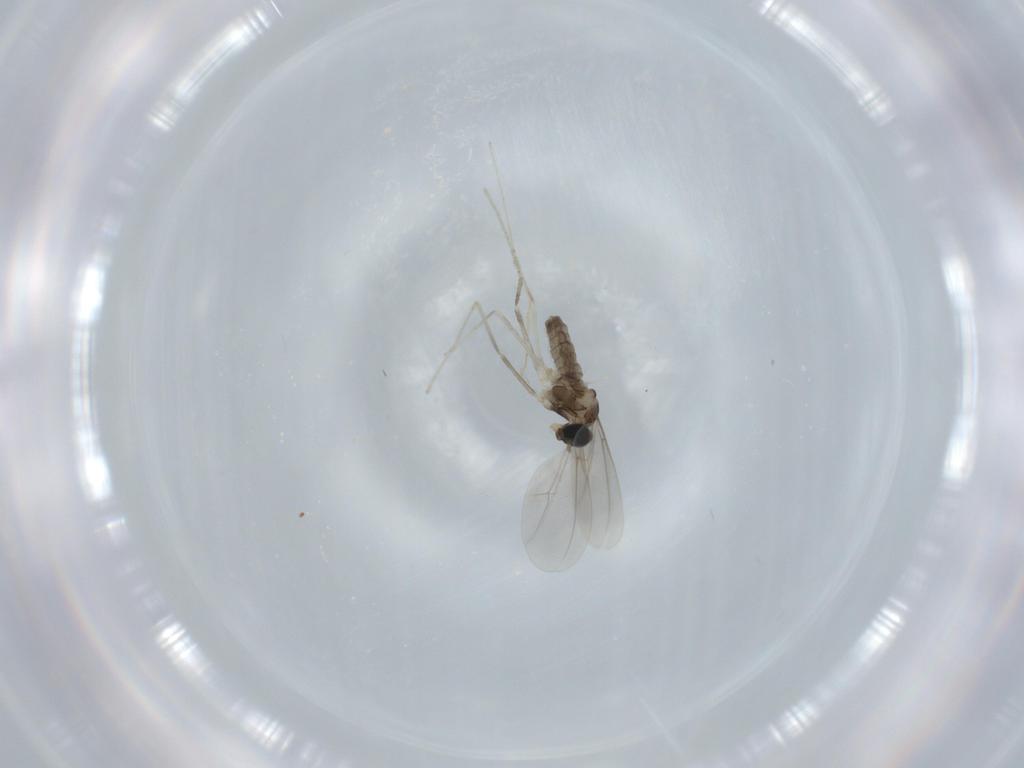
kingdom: Animalia
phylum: Arthropoda
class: Insecta
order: Diptera
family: Cecidomyiidae
